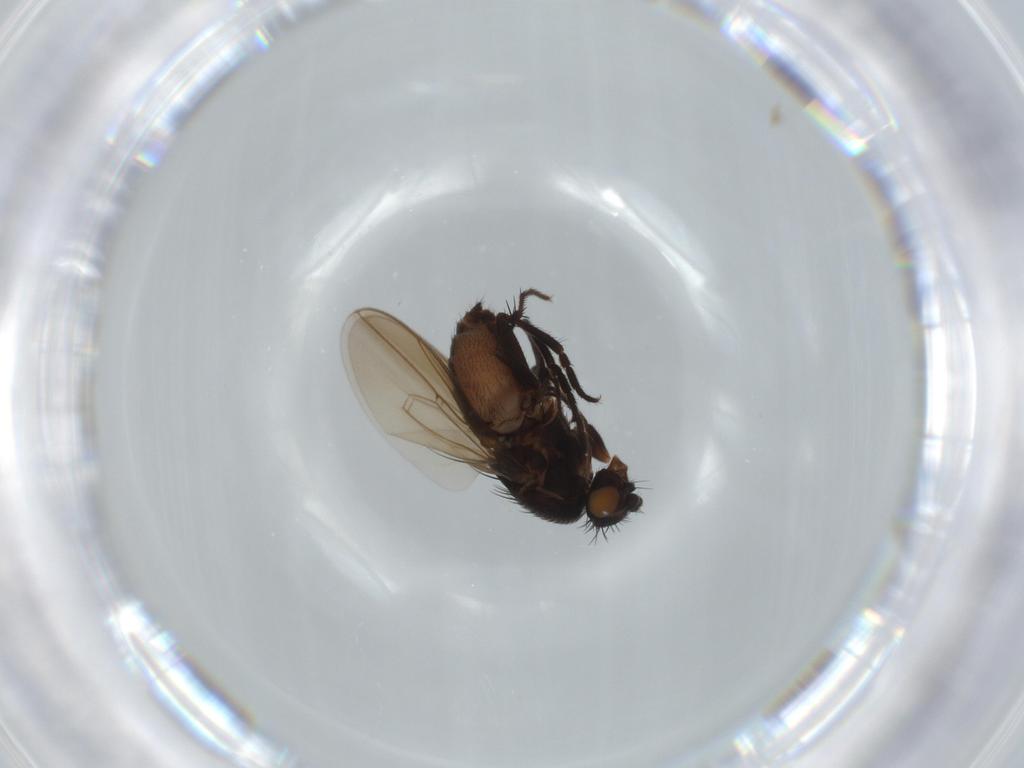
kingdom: Animalia
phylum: Arthropoda
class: Insecta
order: Diptera
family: Sphaeroceridae
